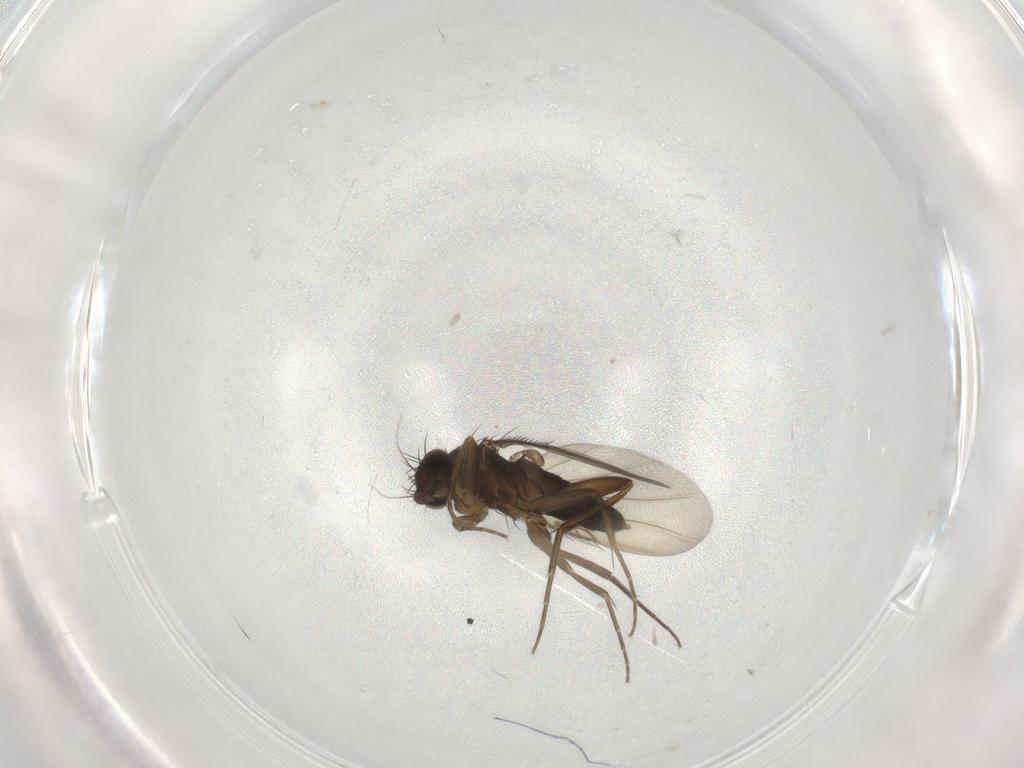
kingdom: Animalia
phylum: Arthropoda
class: Insecta
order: Diptera
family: Phoridae
